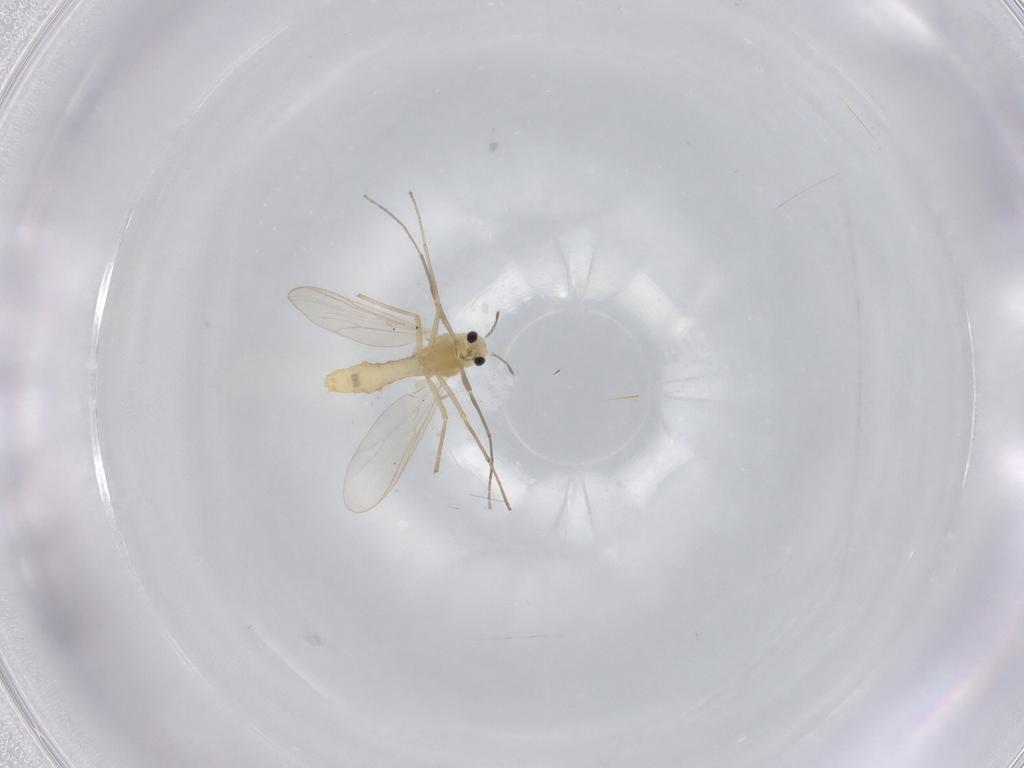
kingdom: Animalia
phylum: Arthropoda
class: Insecta
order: Diptera
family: Chironomidae
